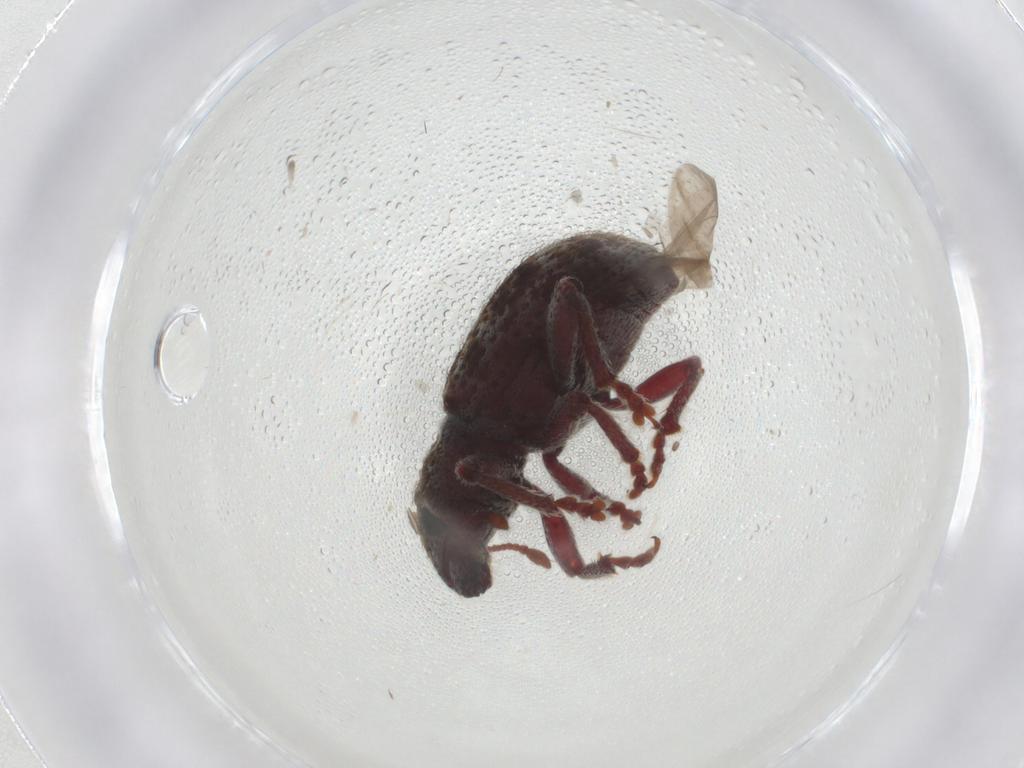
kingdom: Animalia
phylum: Arthropoda
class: Insecta
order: Coleoptera
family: Curculionidae
